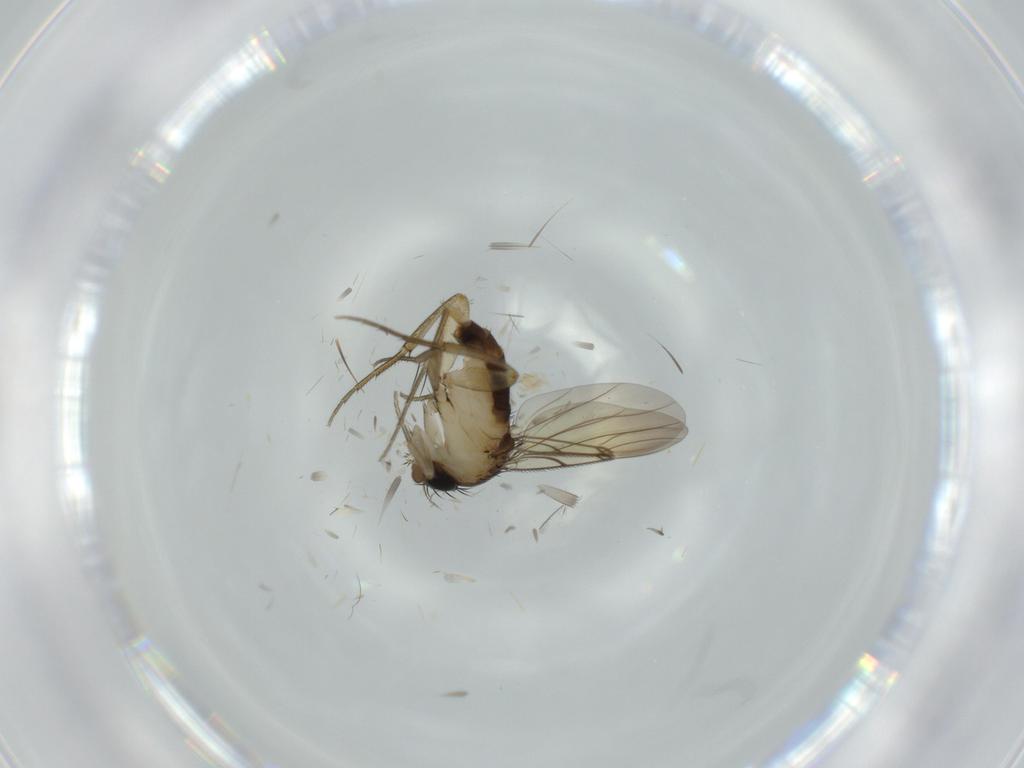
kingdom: Animalia
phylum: Arthropoda
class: Insecta
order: Diptera
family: Phoridae
